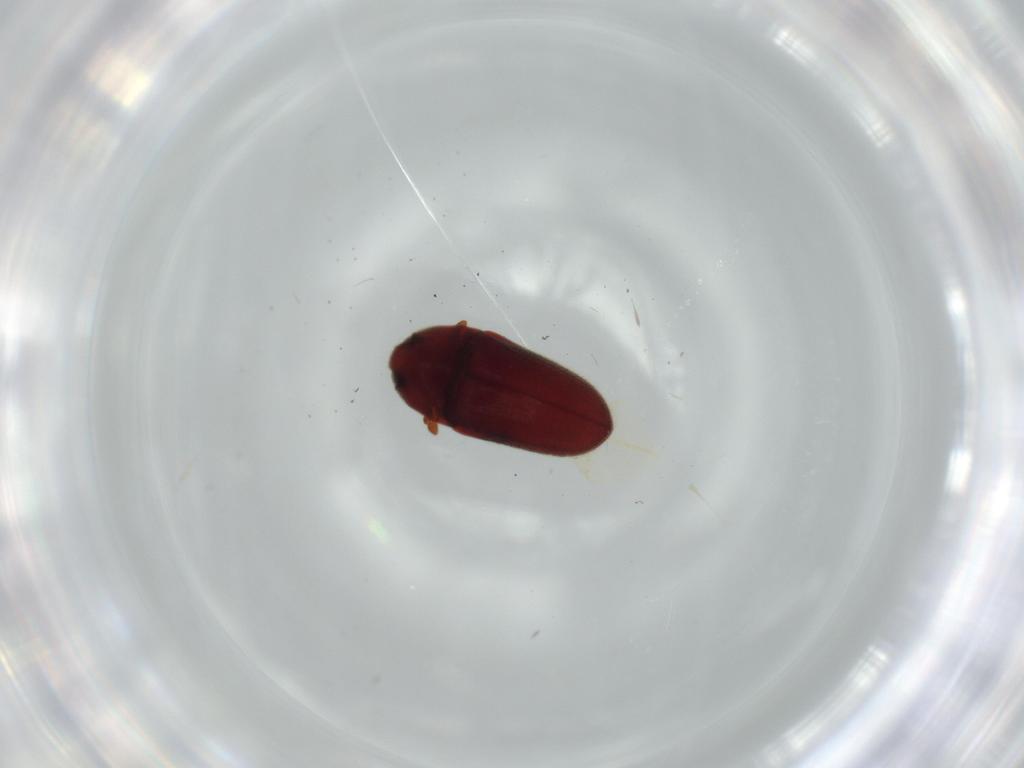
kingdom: Animalia
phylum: Arthropoda
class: Insecta
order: Coleoptera
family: Throscidae
